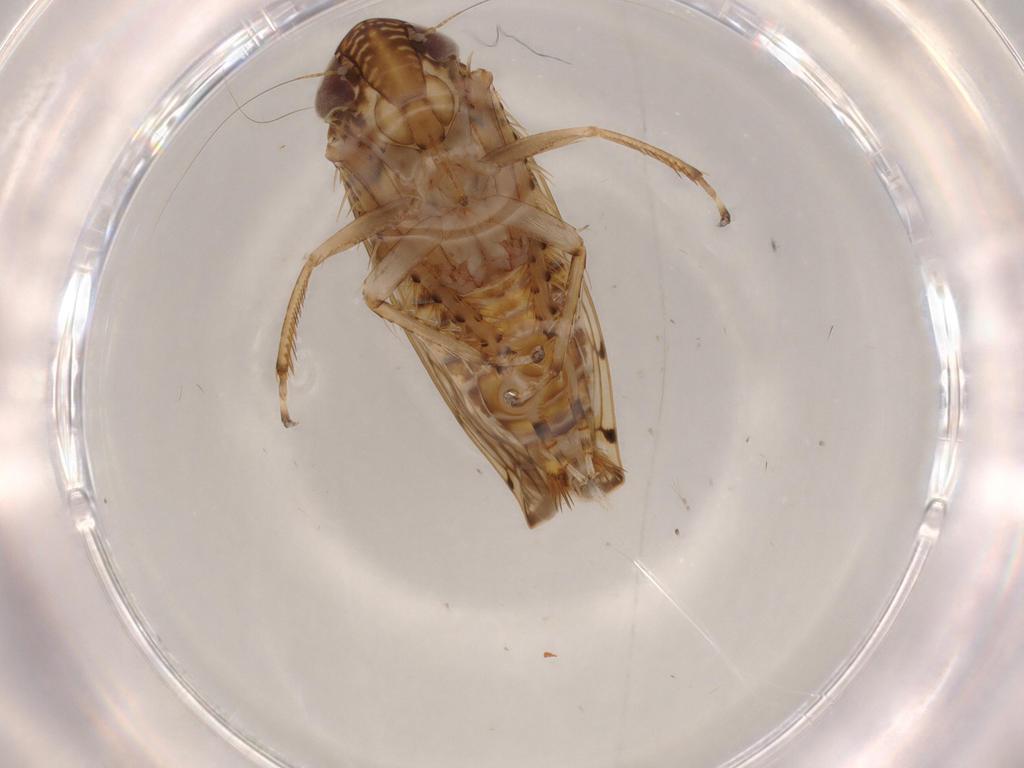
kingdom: Animalia
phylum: Arthropoda
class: Insecta
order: Hemiptera
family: Cicadellidae
